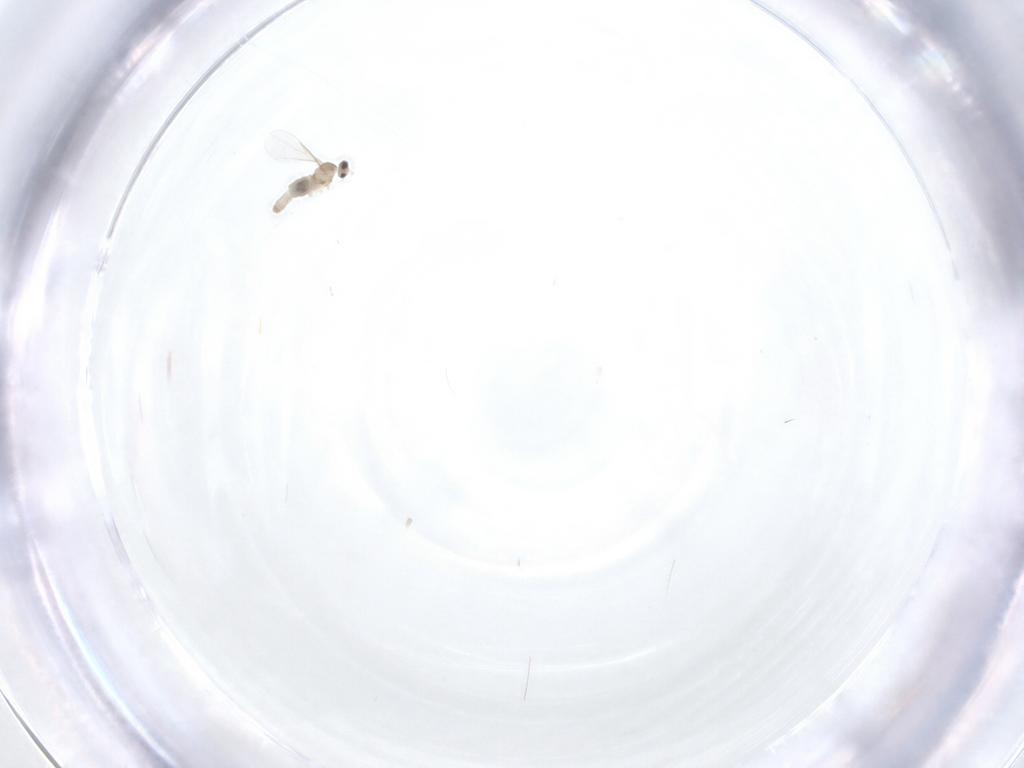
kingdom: Animalia
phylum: Arthropoda
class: Insecta
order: Diptera
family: Cecidomyiidae
